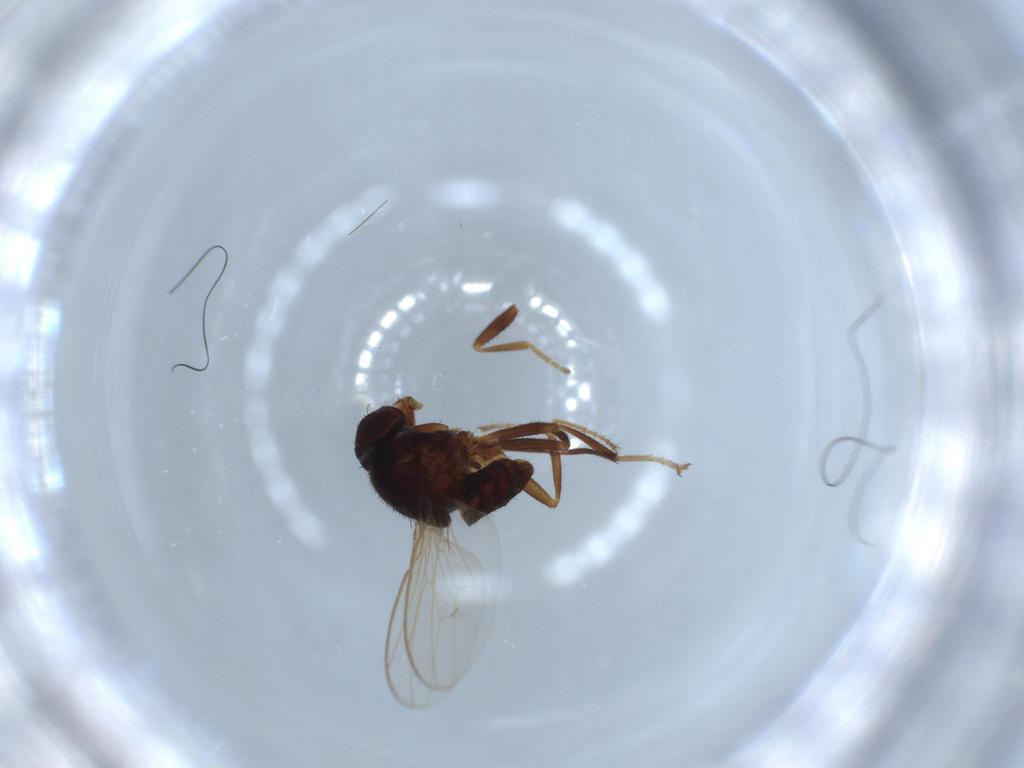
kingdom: Animalia
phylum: Arthropoda
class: Insecta
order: Diptera
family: Drosophilidae
